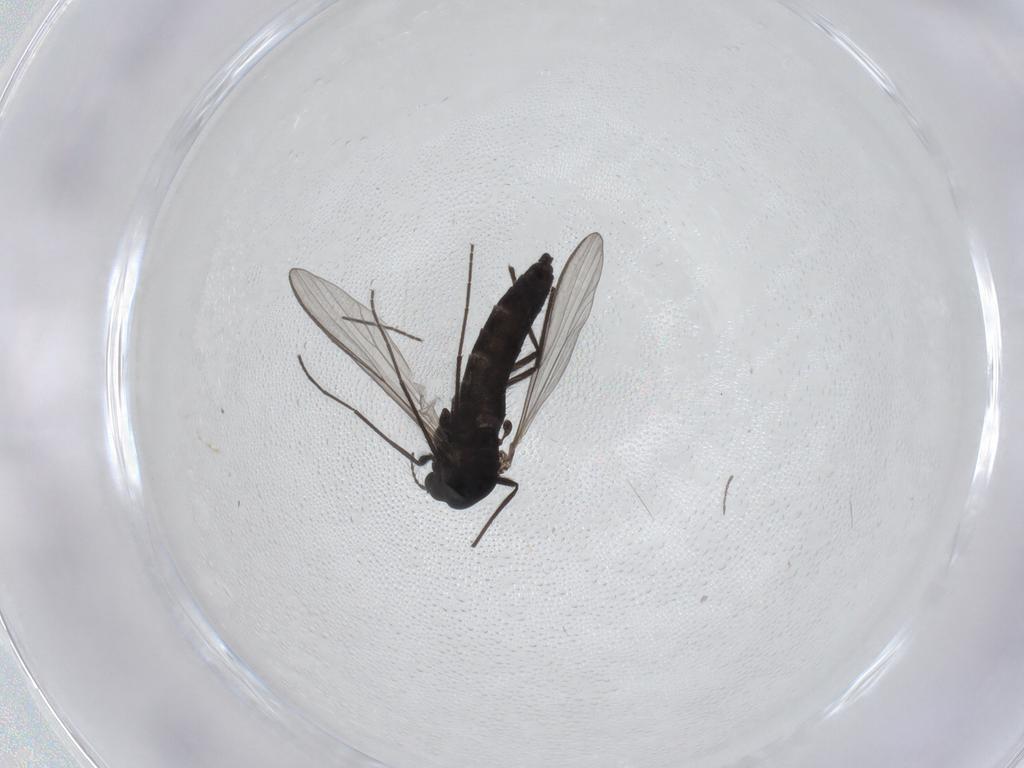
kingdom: Animalia
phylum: Arthropoda
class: Insecta
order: Diptera
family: Chironomidae
